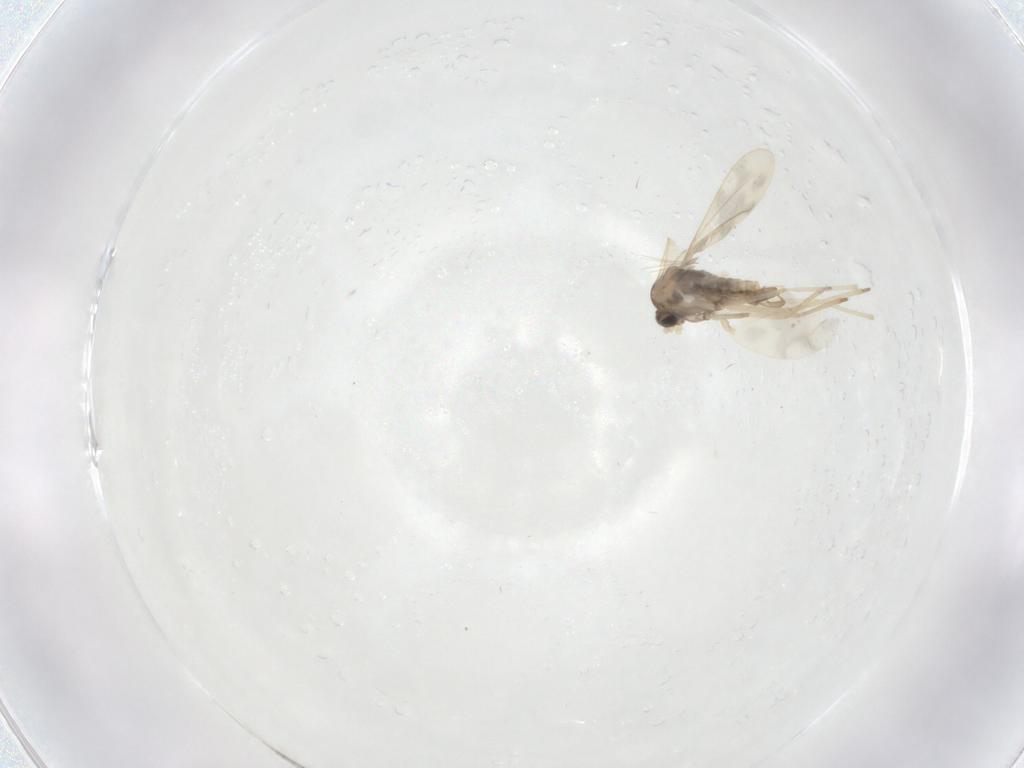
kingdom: Animalia
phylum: Arthropoda
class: Insecta
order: Diptera
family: Cecidomyiidae
